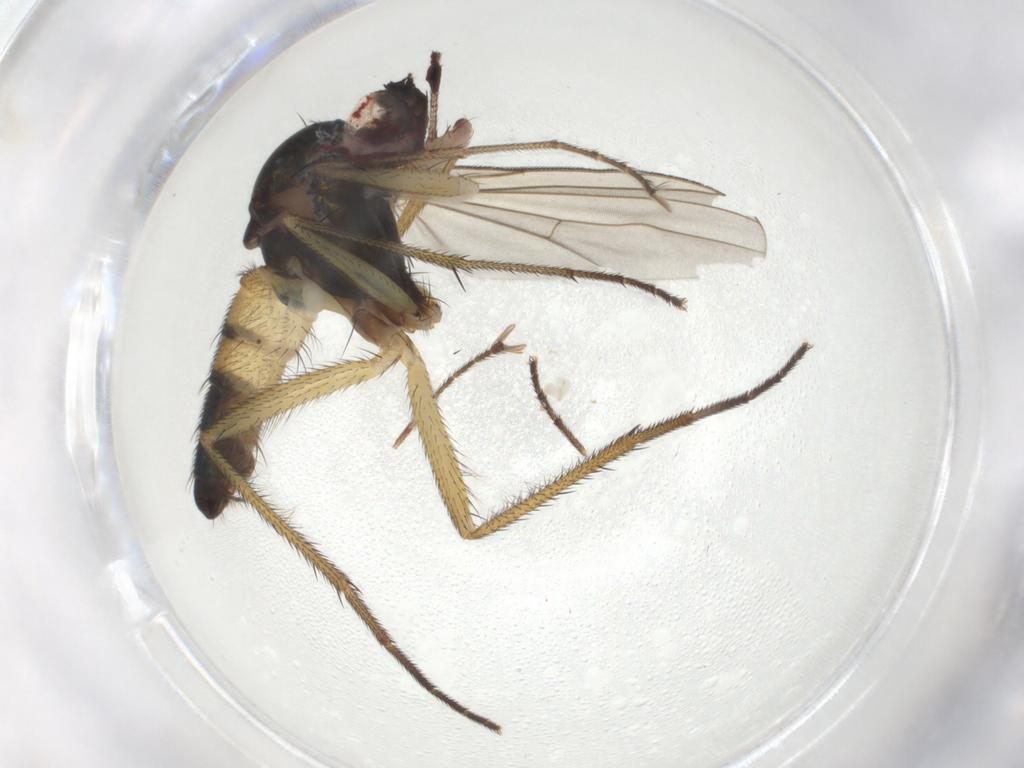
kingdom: Animalia
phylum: Arthropoda
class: Insecta
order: Diptera
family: Dolichopodidae
